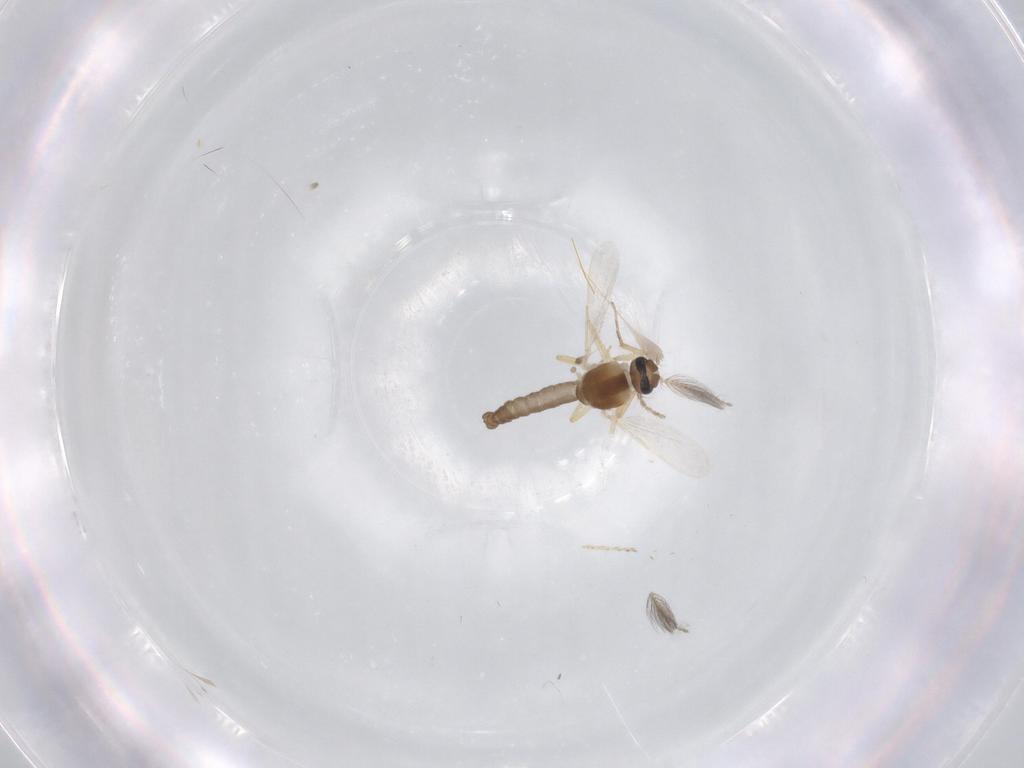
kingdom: Animalia
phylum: Arthropoda
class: Insecta
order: Diptera
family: Ceratopogonidae
